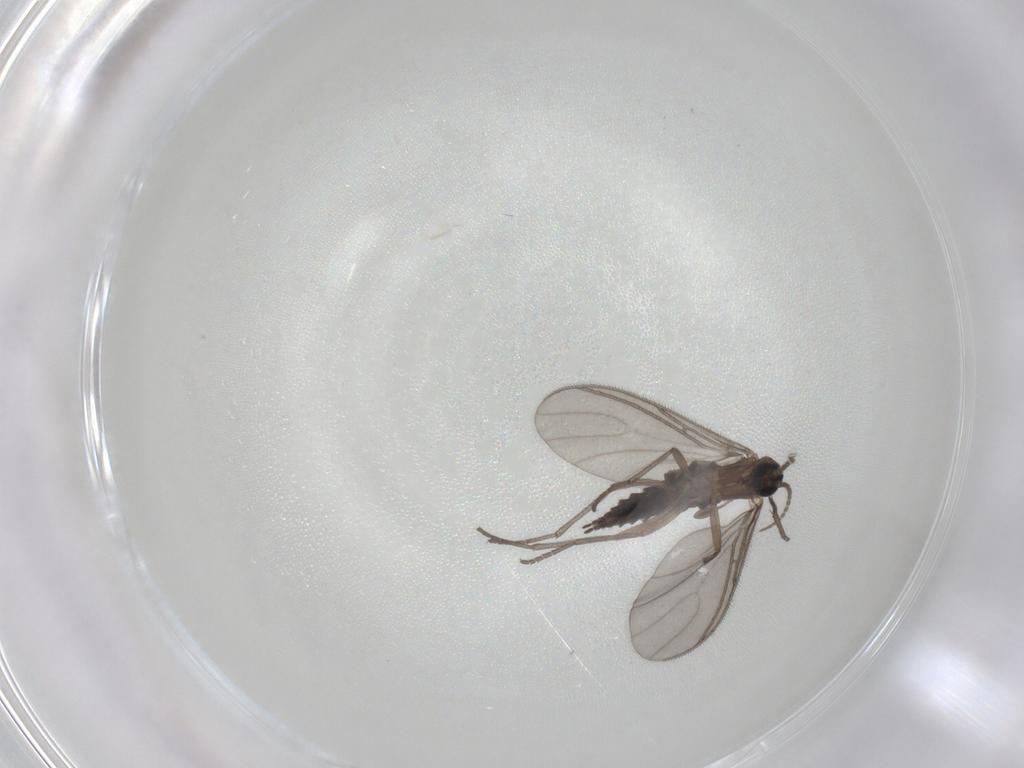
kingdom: Animalia
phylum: Arthropoda
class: Insecta
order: Diptera
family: Sciaridae
